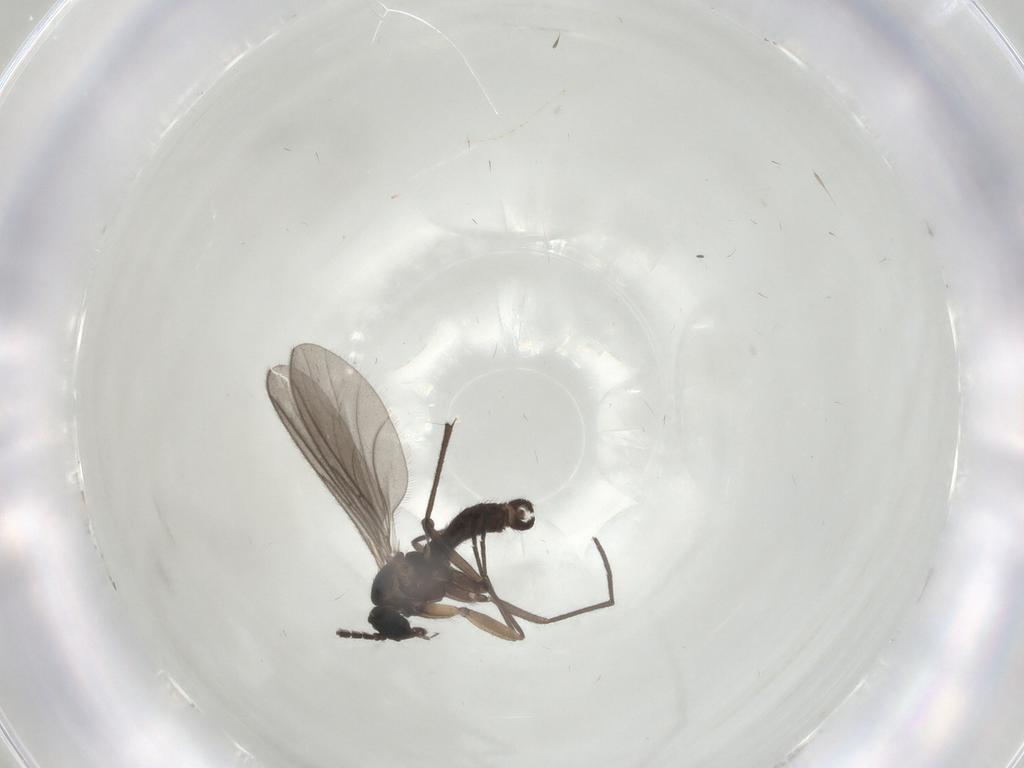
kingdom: Animalia
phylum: Arthropoda
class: Insecta
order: Diptera
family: Sciaridae
